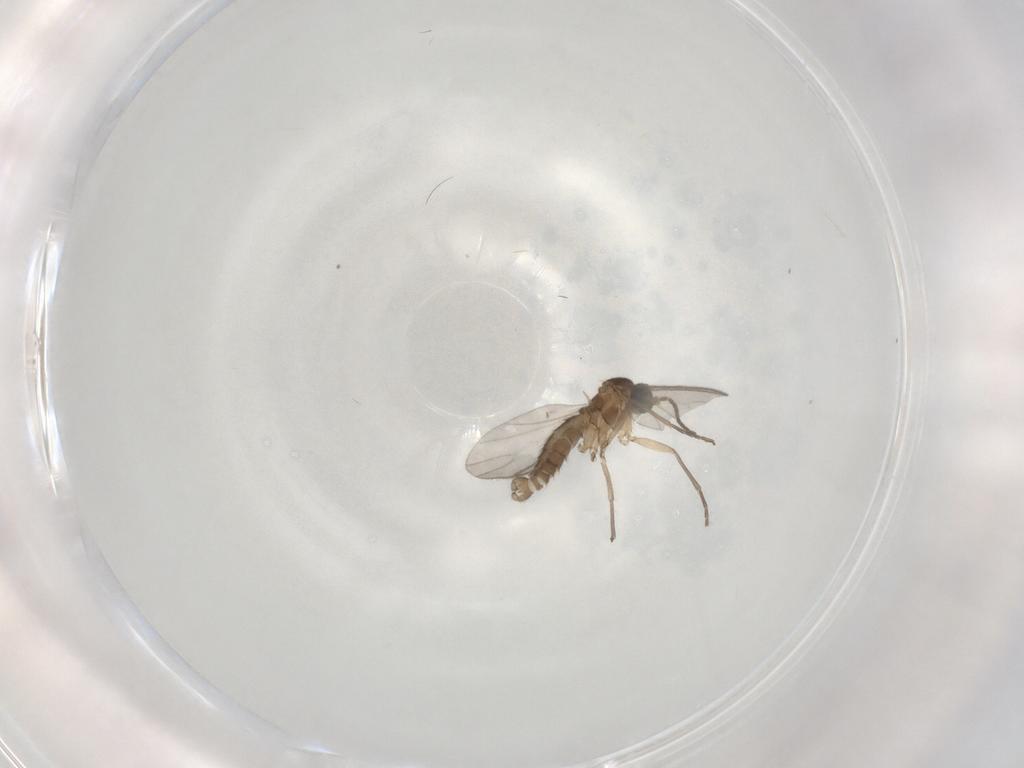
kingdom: Animalia
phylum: Arthropoda
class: Insecta
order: Diptera
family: Sciaridae
